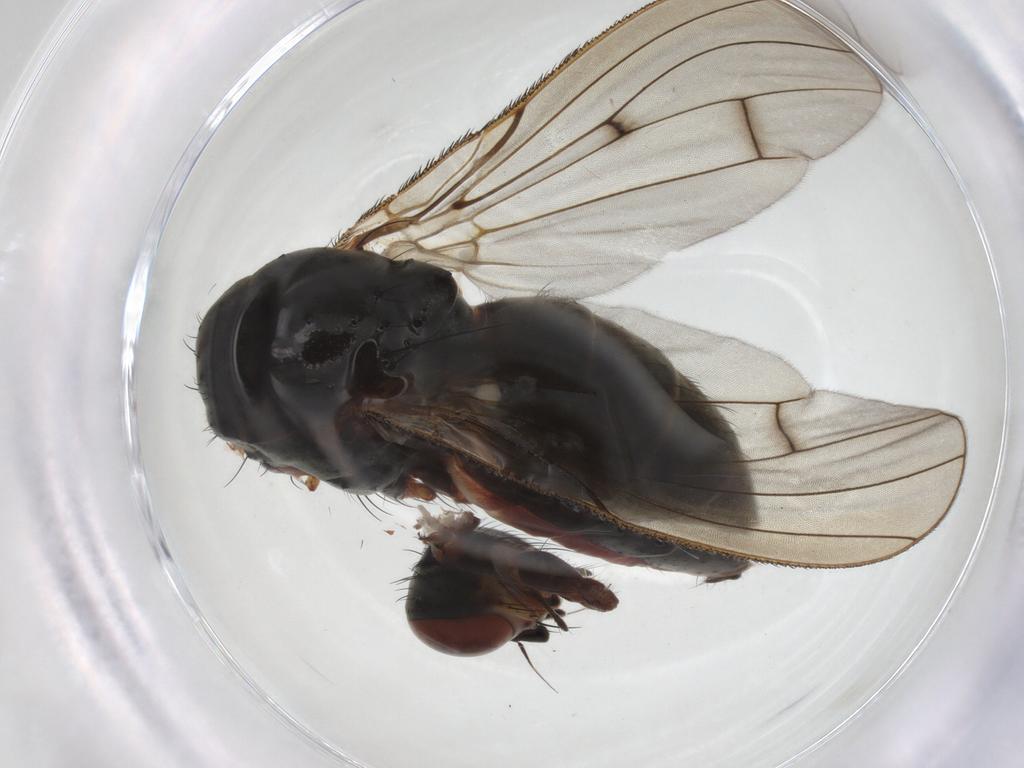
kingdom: Animalia
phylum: Arthropoda
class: Insecta
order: Diptera
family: Anthomyiidae
